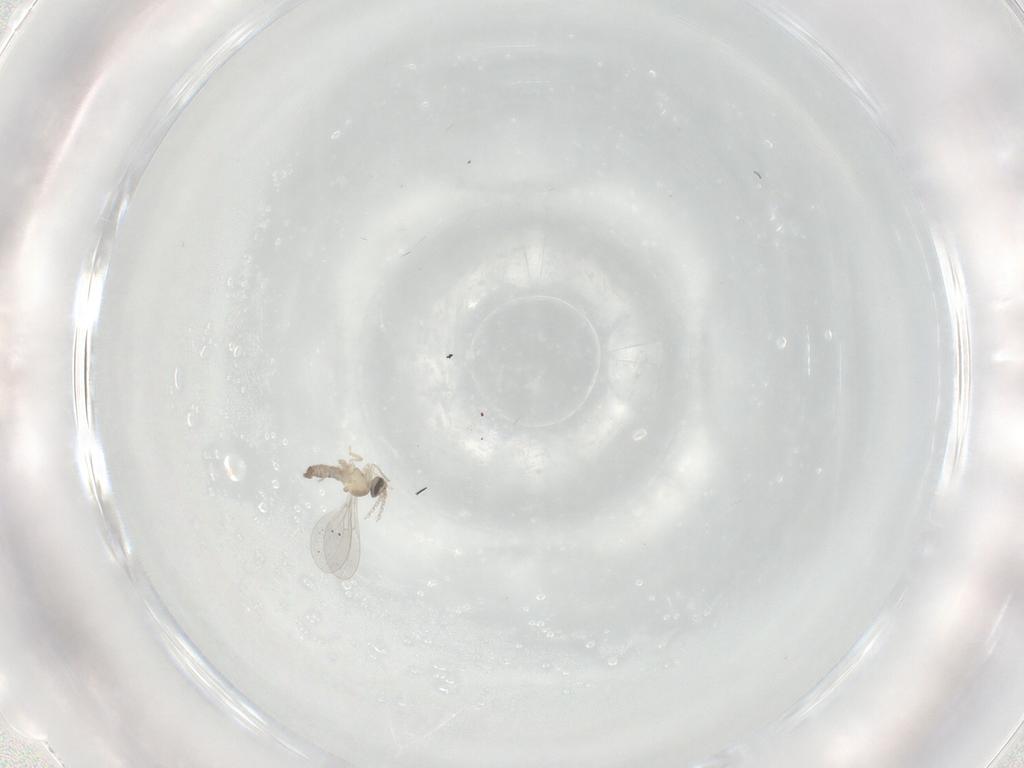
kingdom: Animalia
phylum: Arthropoda
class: Insecta
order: Diptera
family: Cecidomyiidae
